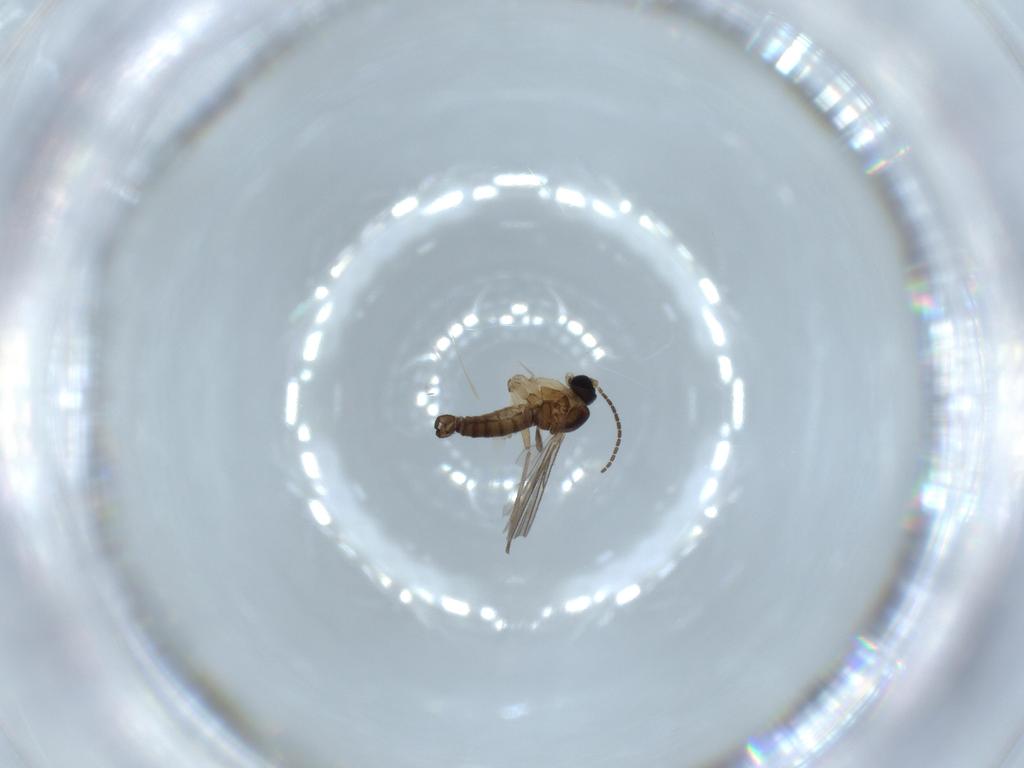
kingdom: Animalia
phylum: Arthropoda
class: Insecta
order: Diptera
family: Sciaridae
